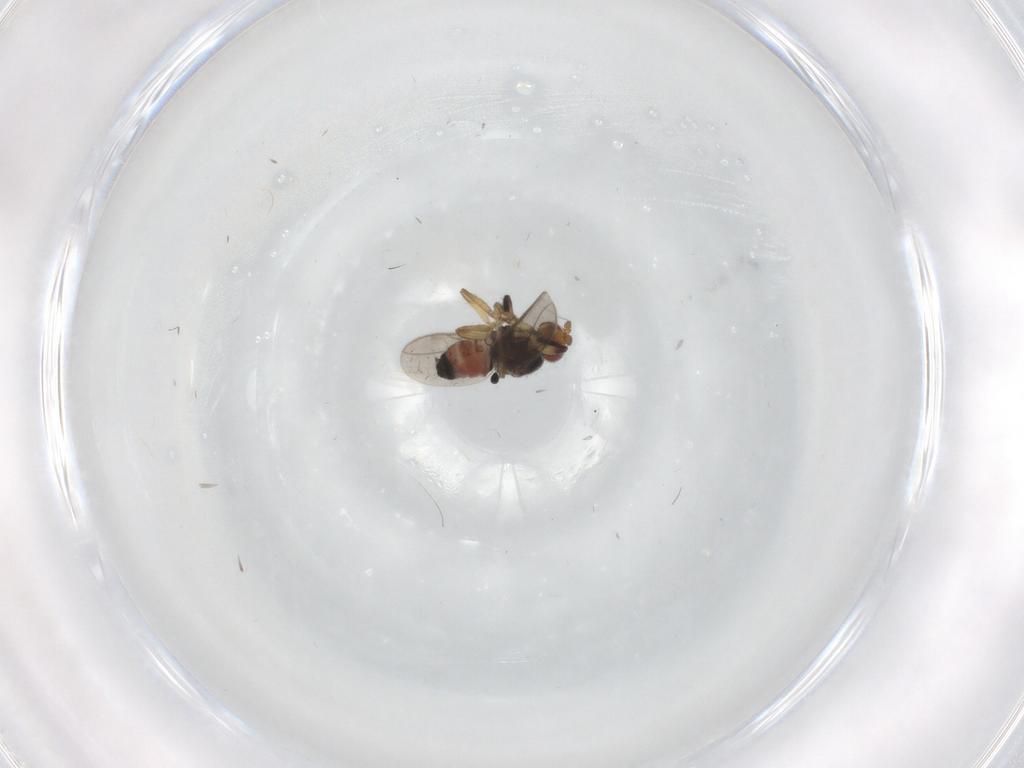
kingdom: Animalia
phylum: Arthropoda
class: Insecta
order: Diptera
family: Sphaeroceridae
